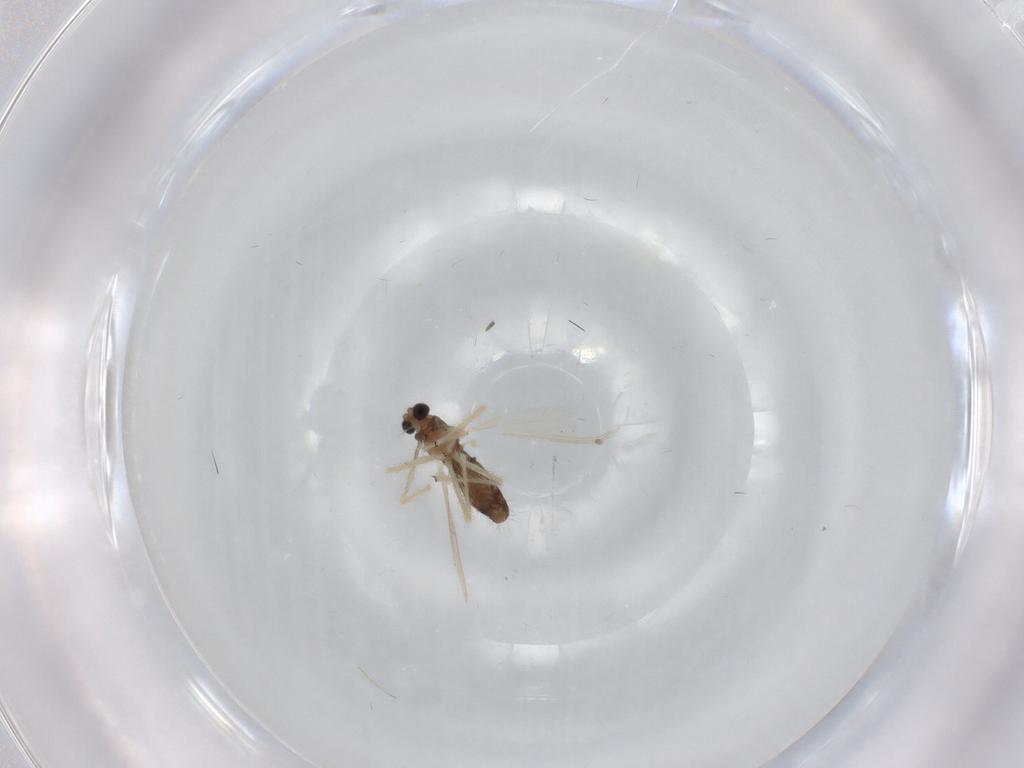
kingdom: Animalia
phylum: Arthropoda
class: Insecta
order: Diptera
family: Chironomidae
